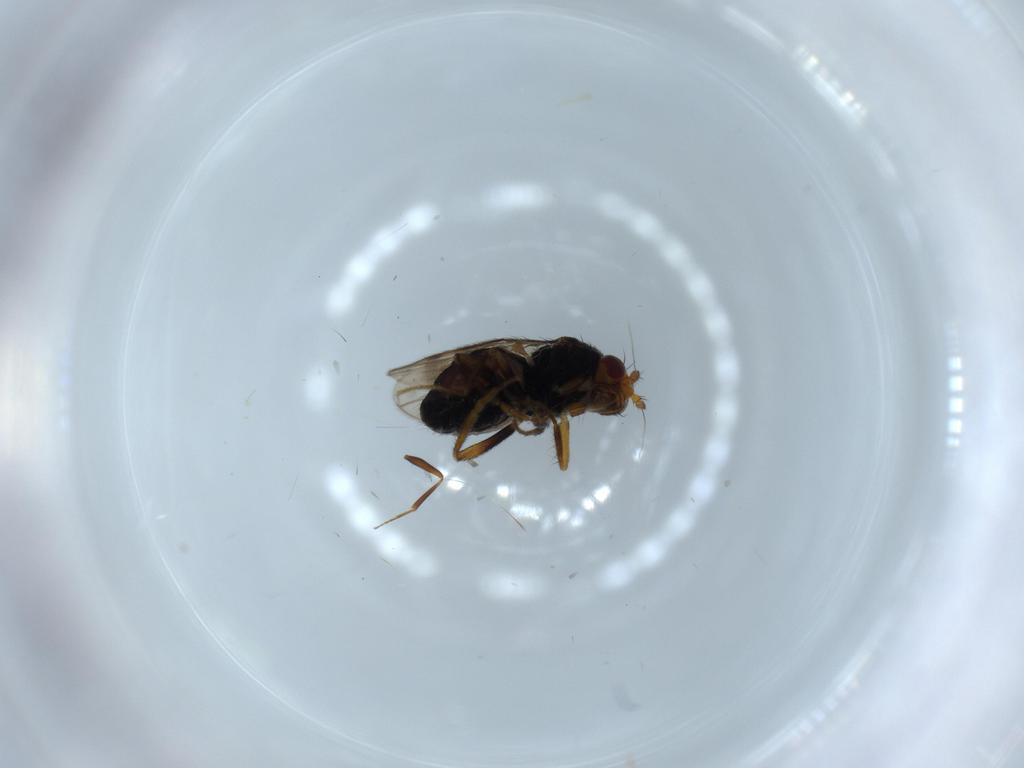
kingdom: Animalia
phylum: Arthropoda
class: Insecta
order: Diptera
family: Sphaeroceridae
